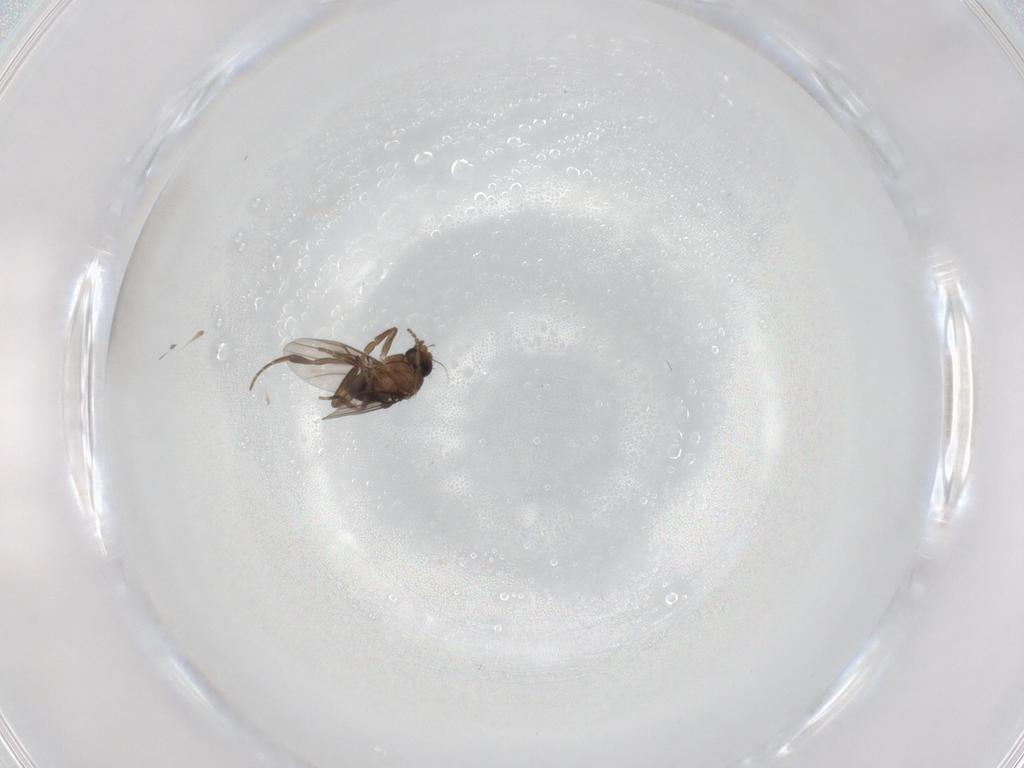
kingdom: Animalia
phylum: Arthropoda
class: Insecta
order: Diptera
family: Phoridae
